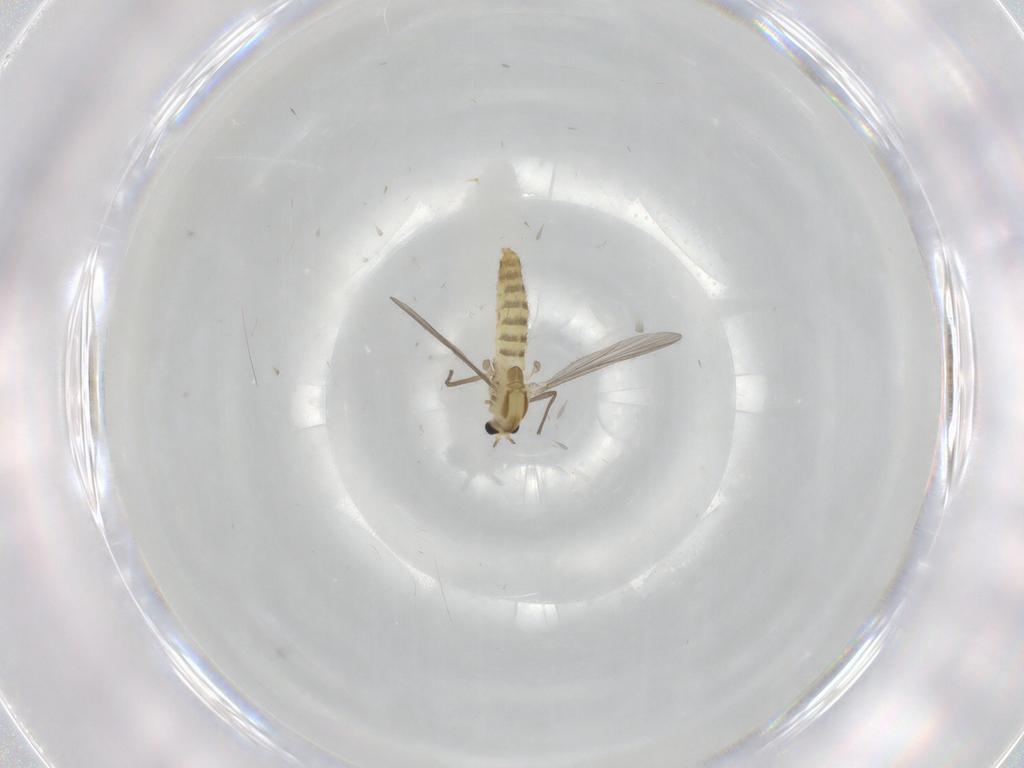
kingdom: Animalia
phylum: Arthropoda
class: Insecta
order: Diptera
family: Chironomidae
